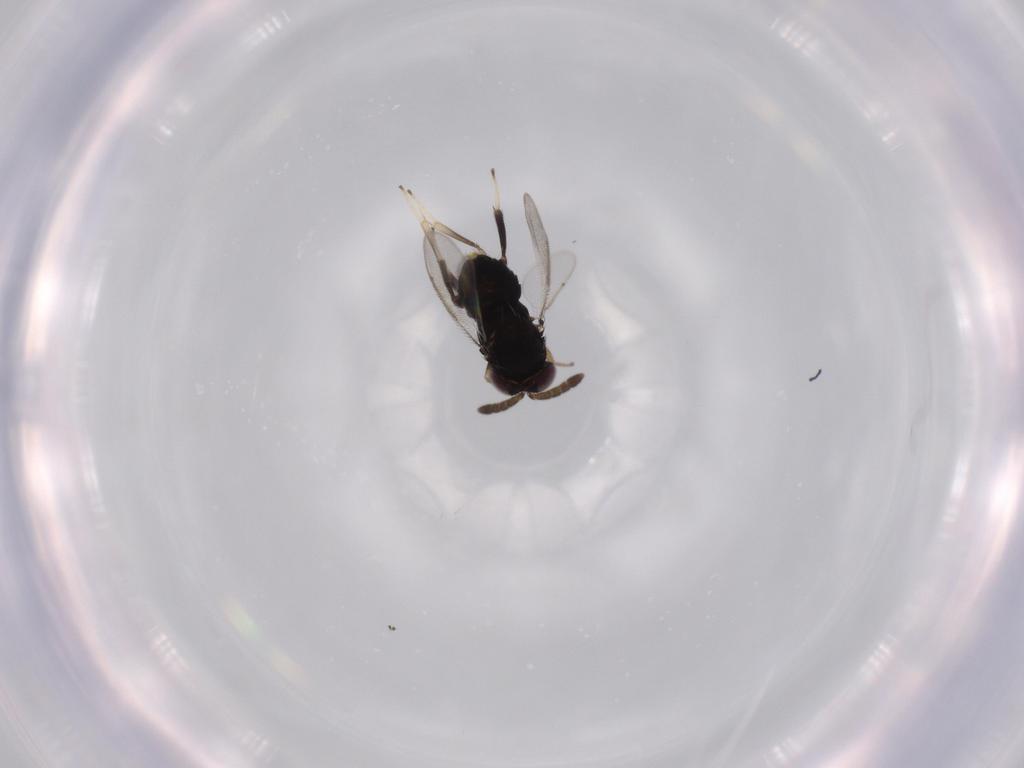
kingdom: Animalia
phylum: Arthropoda
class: Insecta
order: Hymenoptera
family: Aphelinidae
